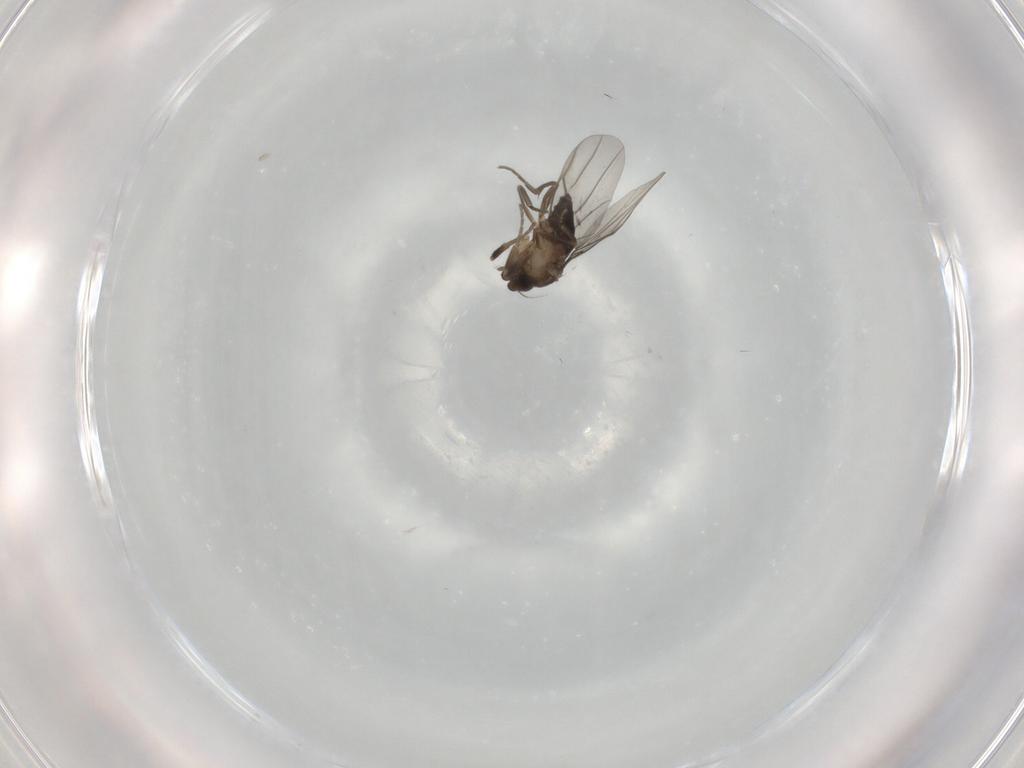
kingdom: Animalia
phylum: Arthropoda
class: Insecta
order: Diptera
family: Phoridae
